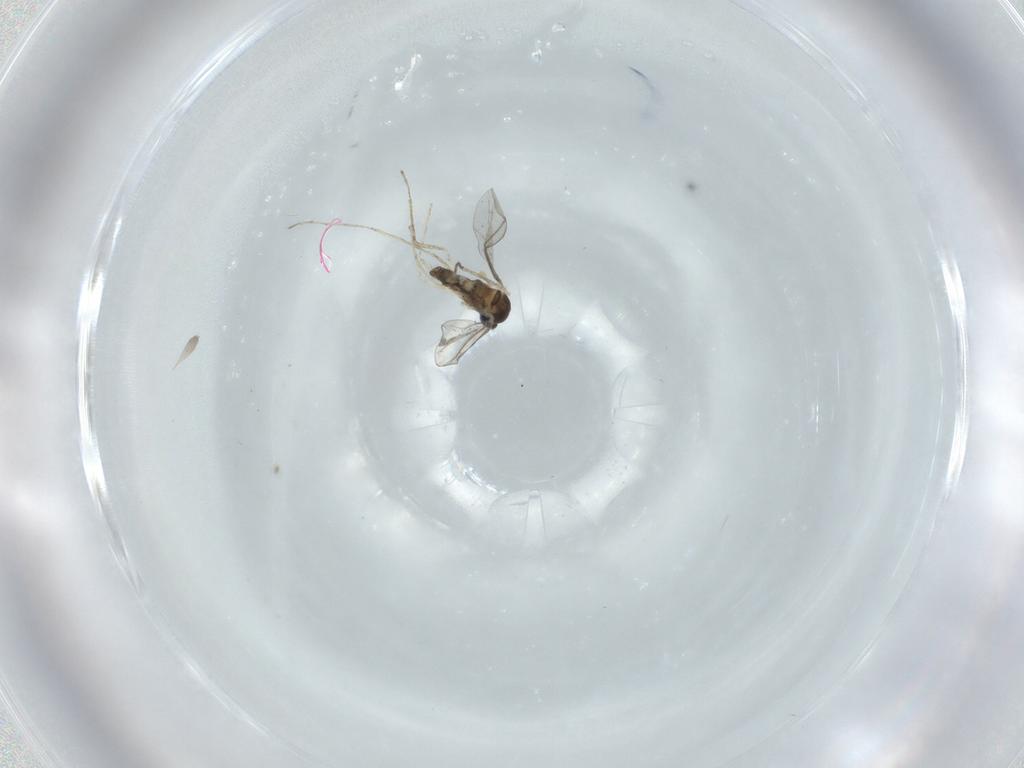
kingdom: Animalia
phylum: Arthropoda
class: Insecta
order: Diptera
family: Cecidomyiidae
